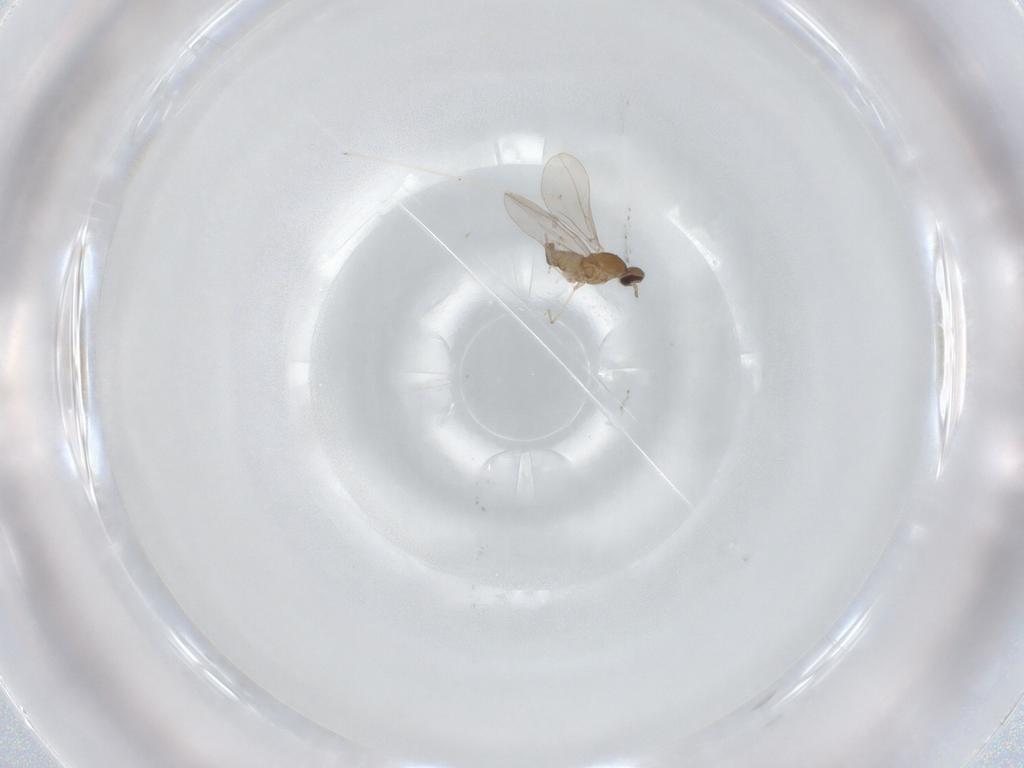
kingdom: Animalia
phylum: Arthropoda
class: Insecta
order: Diptera
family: Cecidomyiidae
